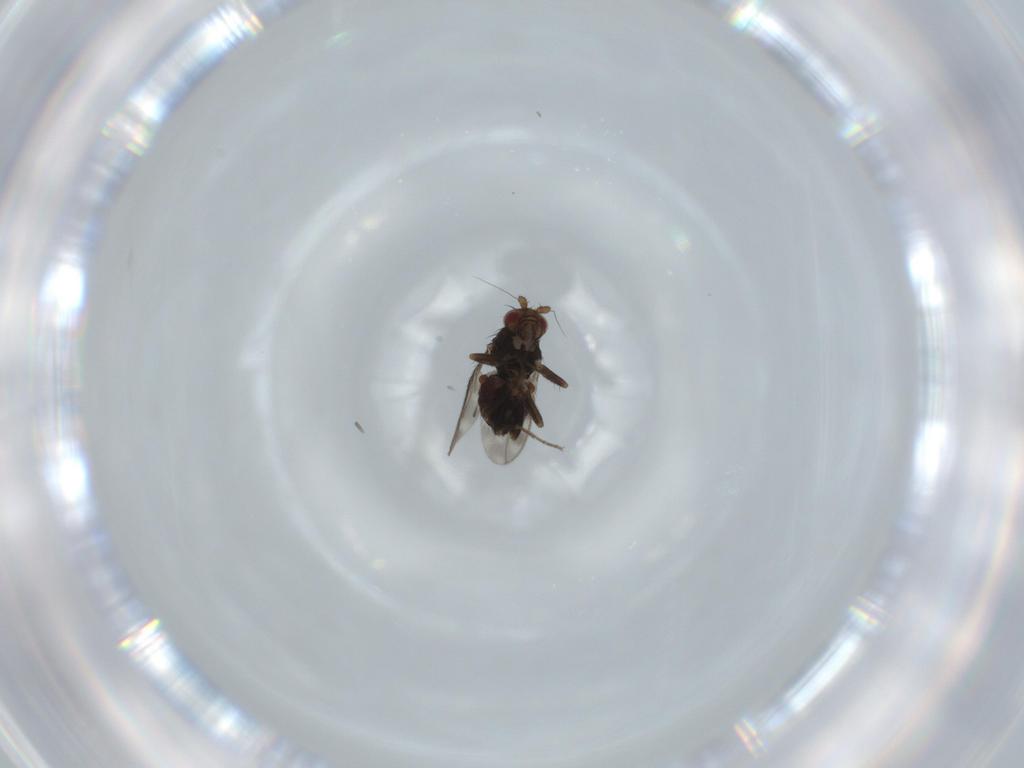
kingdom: Animalia
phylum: Arthropoda
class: Insecta
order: Diptera
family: Sphaeroceridae
